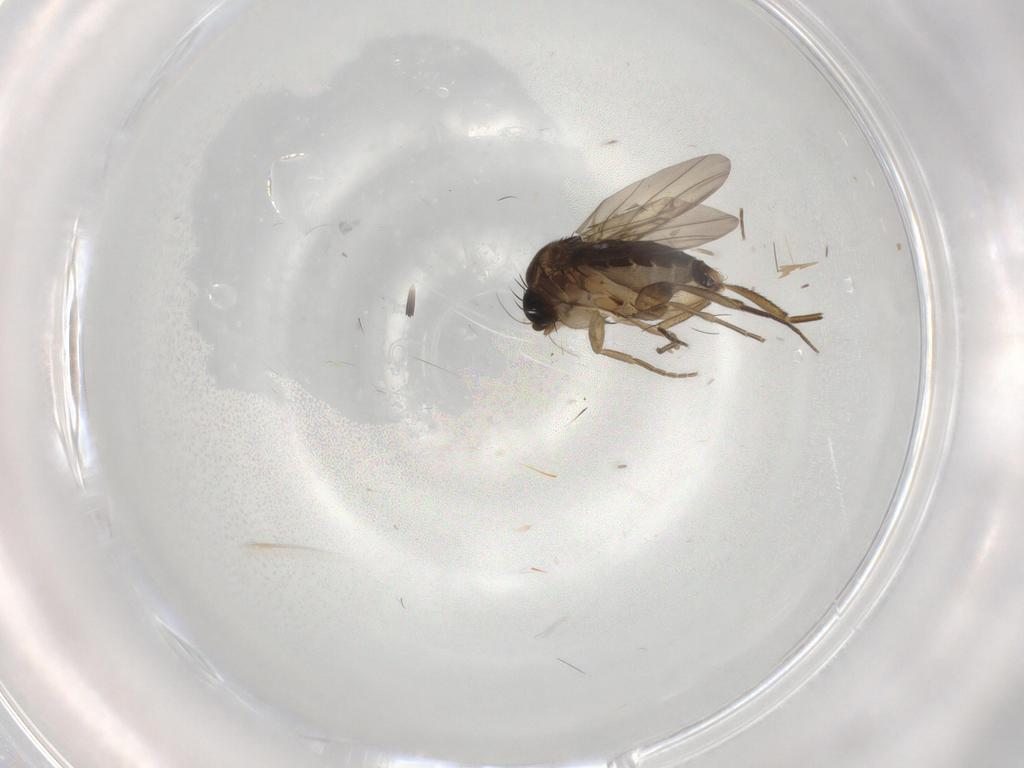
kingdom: Animalia
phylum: Arthropoda
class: Insecta
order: Diptera
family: Phoridae
